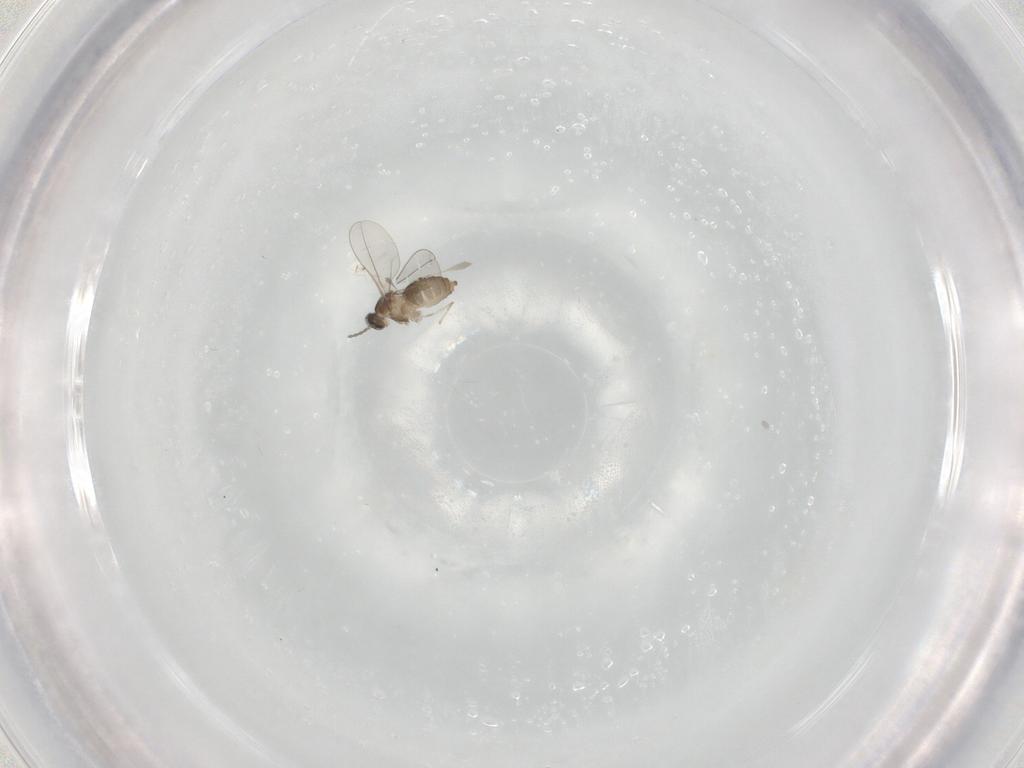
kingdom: Animalia
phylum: Arthropoda
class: Insecta
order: Diptera
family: Cecidomyiidae
